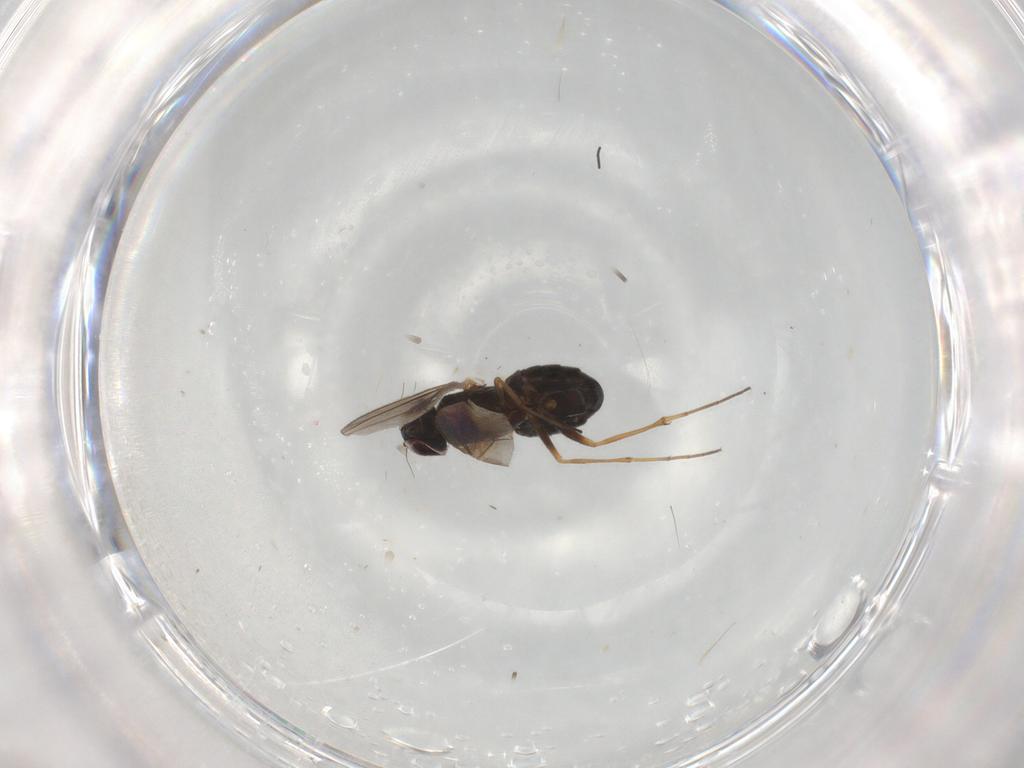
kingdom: Animalia
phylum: Arthropoda
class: Insecta
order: Diptera
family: Dolichopodidae
